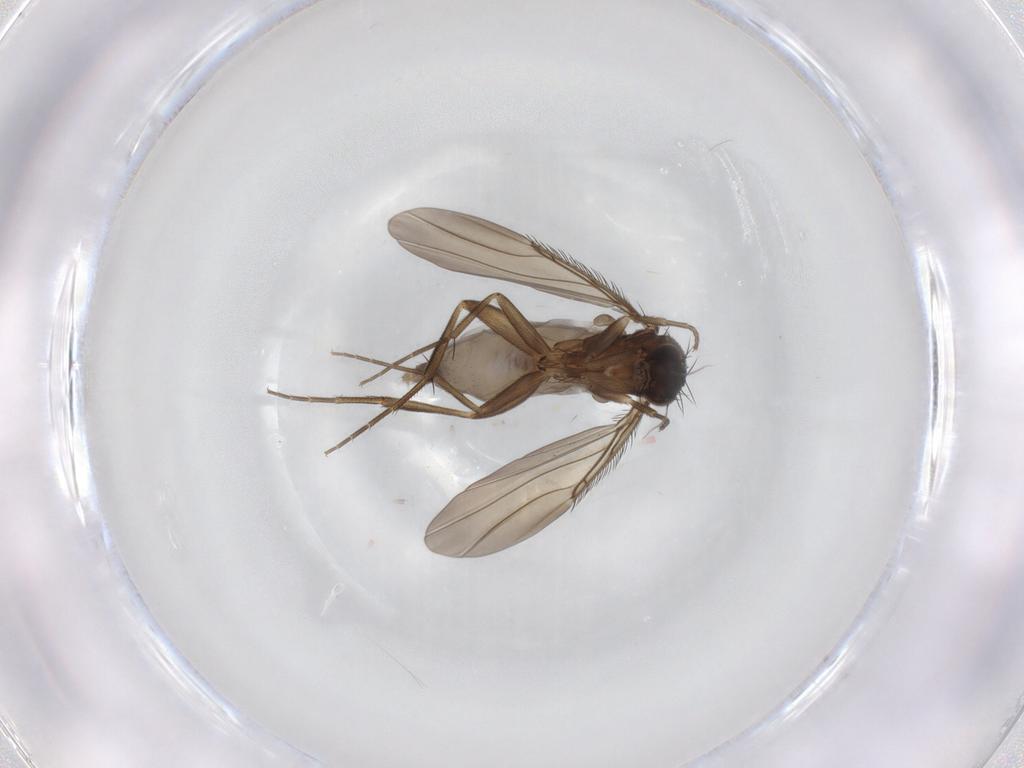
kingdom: Animalia
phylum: Arthropoda
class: Insecta
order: Diptera
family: Phoridae
